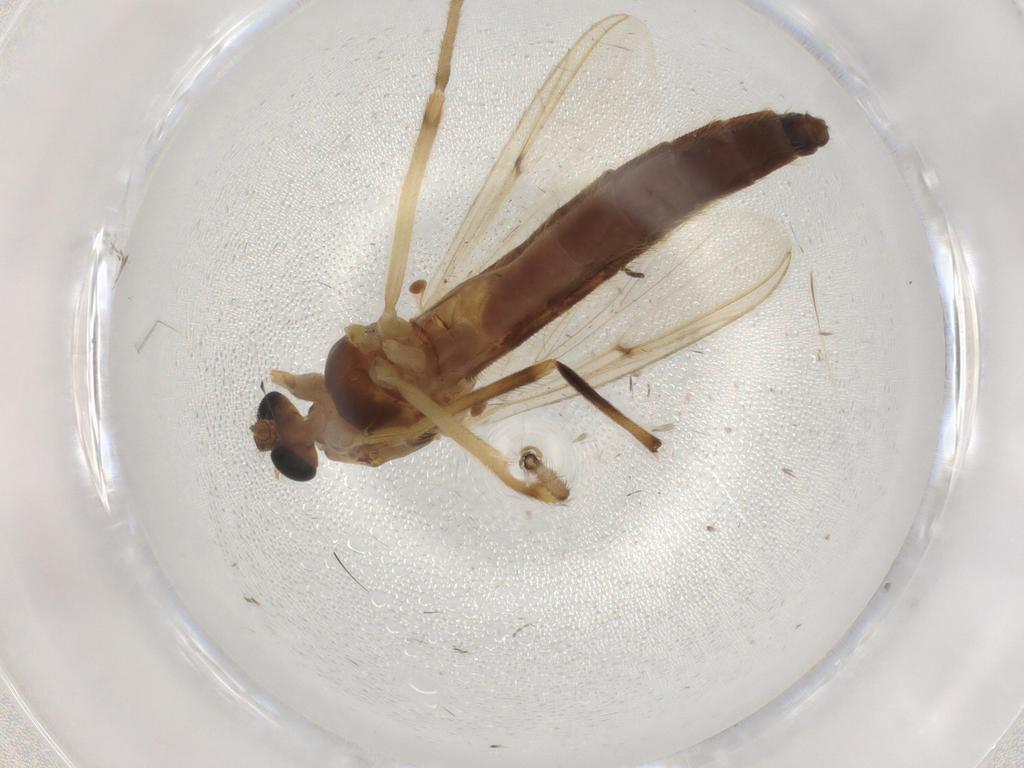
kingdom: Animalia
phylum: Arthropoda
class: Insecta
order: Diptera
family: Chironomidae
